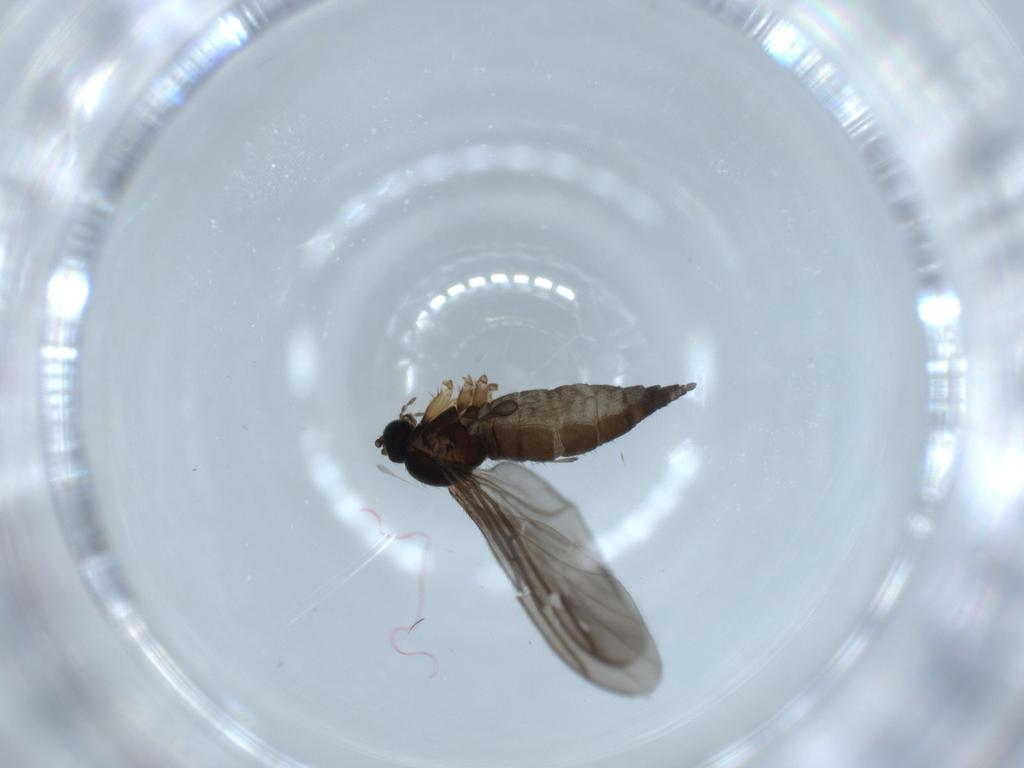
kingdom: Animalia
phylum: Arthropoda
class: Insecta
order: Diptera
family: Sciaridae
